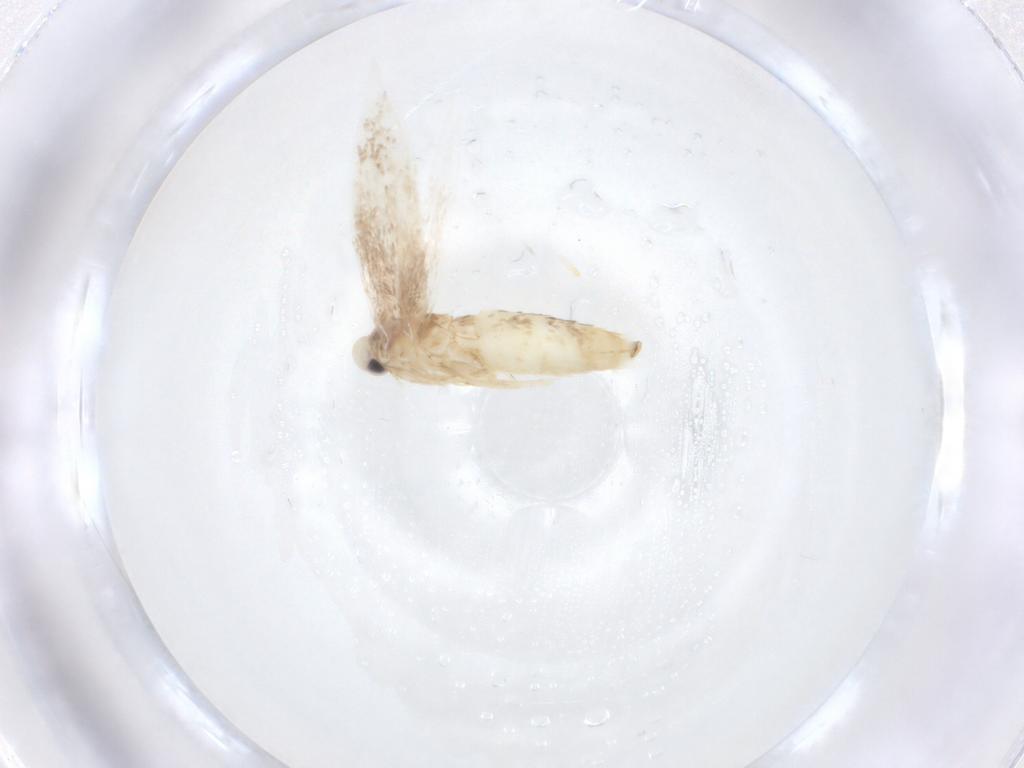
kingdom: Animalia
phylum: Arthropoda
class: Insecta
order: Lepidoptera
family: Gracillariidae
